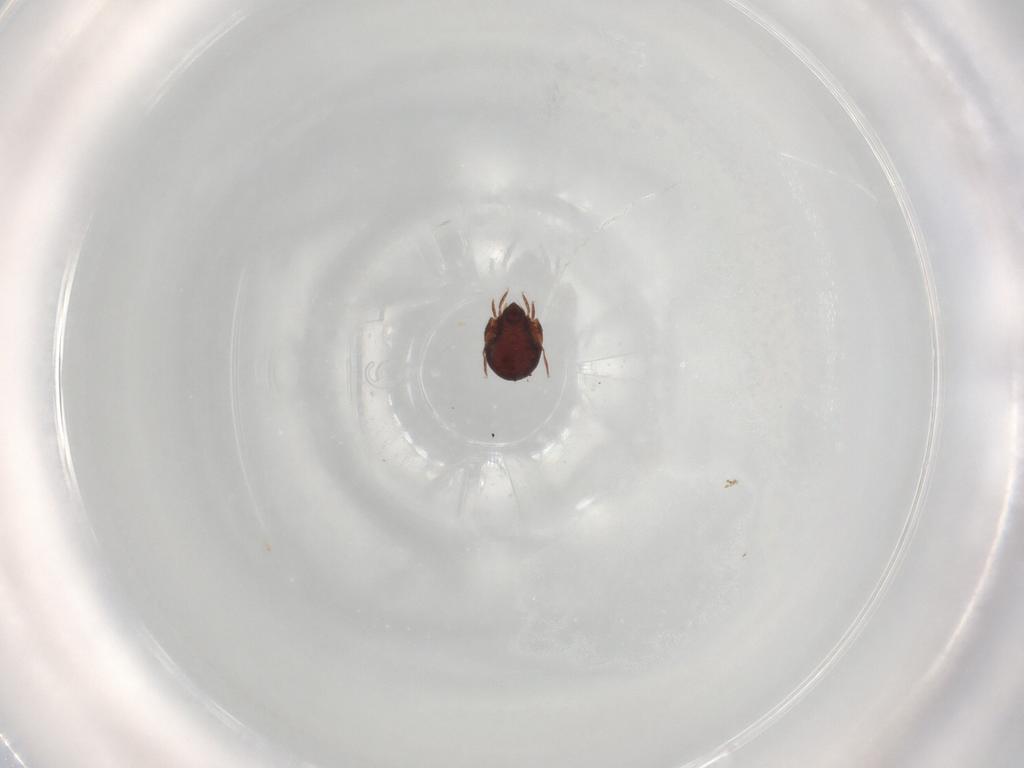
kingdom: Animalia
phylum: Arthropoda
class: Arachnida
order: Sarcoptiformes
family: Humerobatidae
